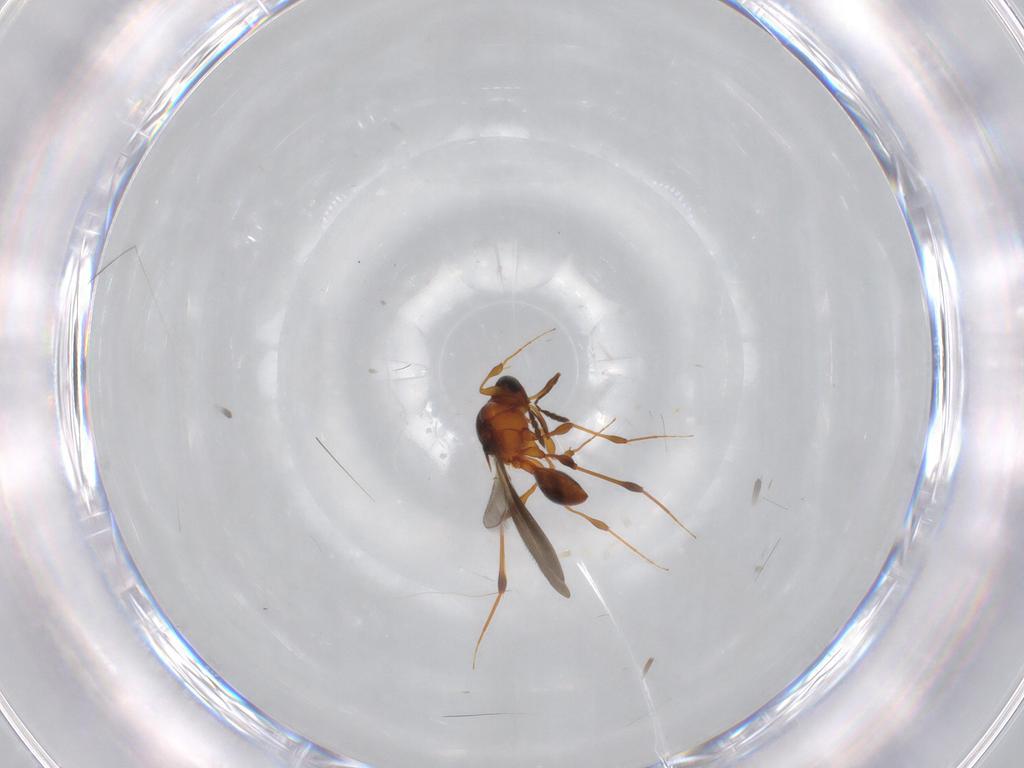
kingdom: Animalia
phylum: Arthropoda
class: Insecta
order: Hymenoptera
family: Platygastridae
